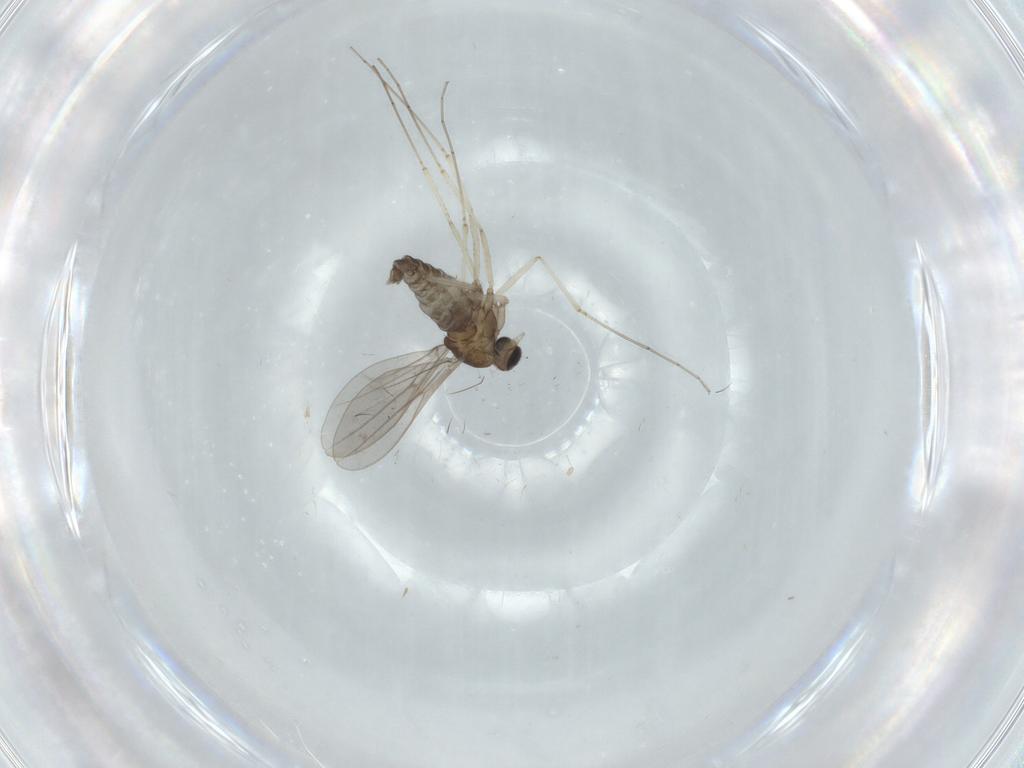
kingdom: Animalia
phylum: Arthropoda
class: Insecta
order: Diptera
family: Cecidomyiidae
